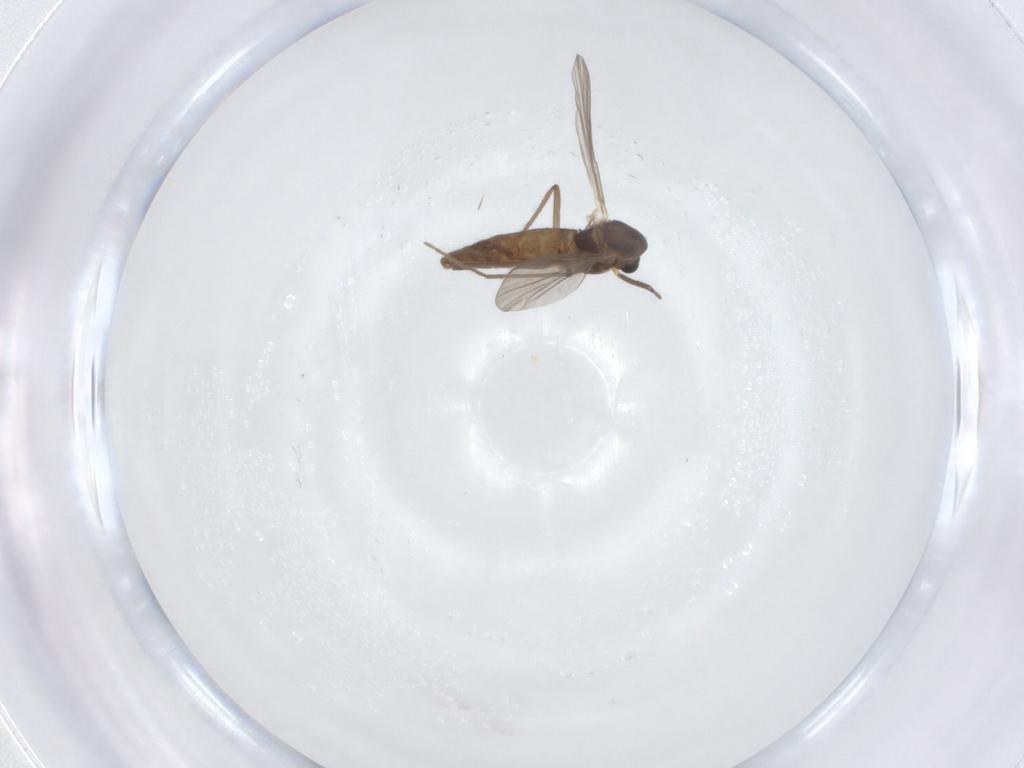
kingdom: Animalia
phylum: Arthropoda
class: Insecta
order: Diptera
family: Chironomidae
